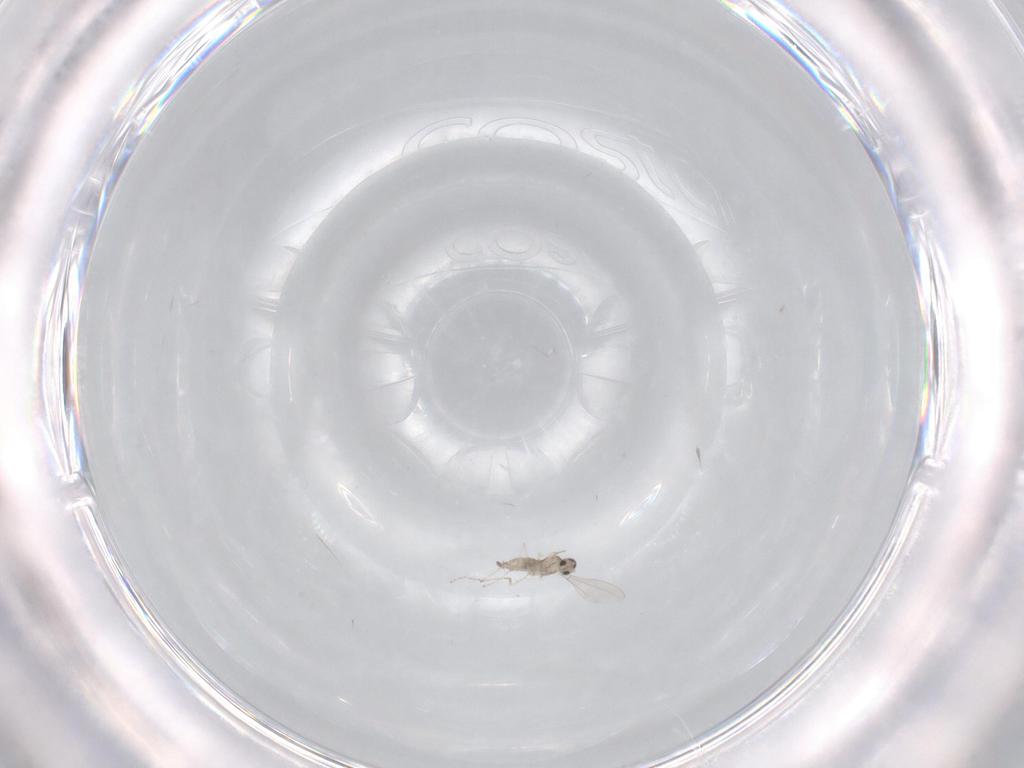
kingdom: Animalia
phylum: Arthropoda
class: Insecta
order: Diptera
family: Cecidomyiidae
